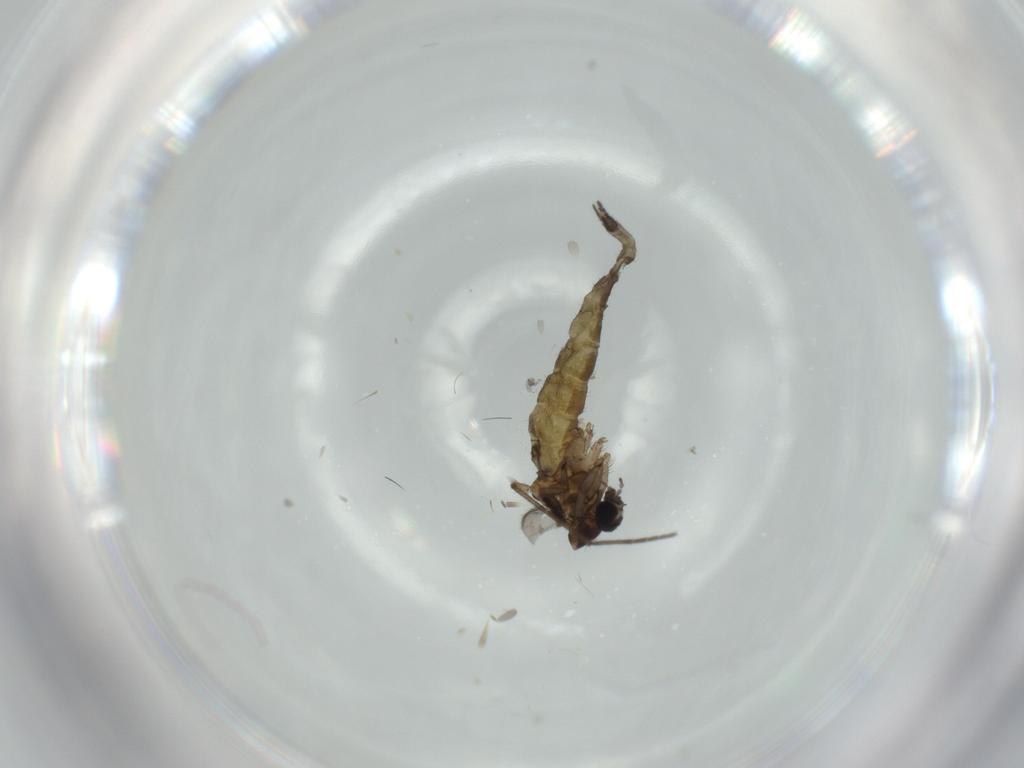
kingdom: Animalia
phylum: Arthropoda
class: Insecta
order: Diptera
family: Sciaridae
